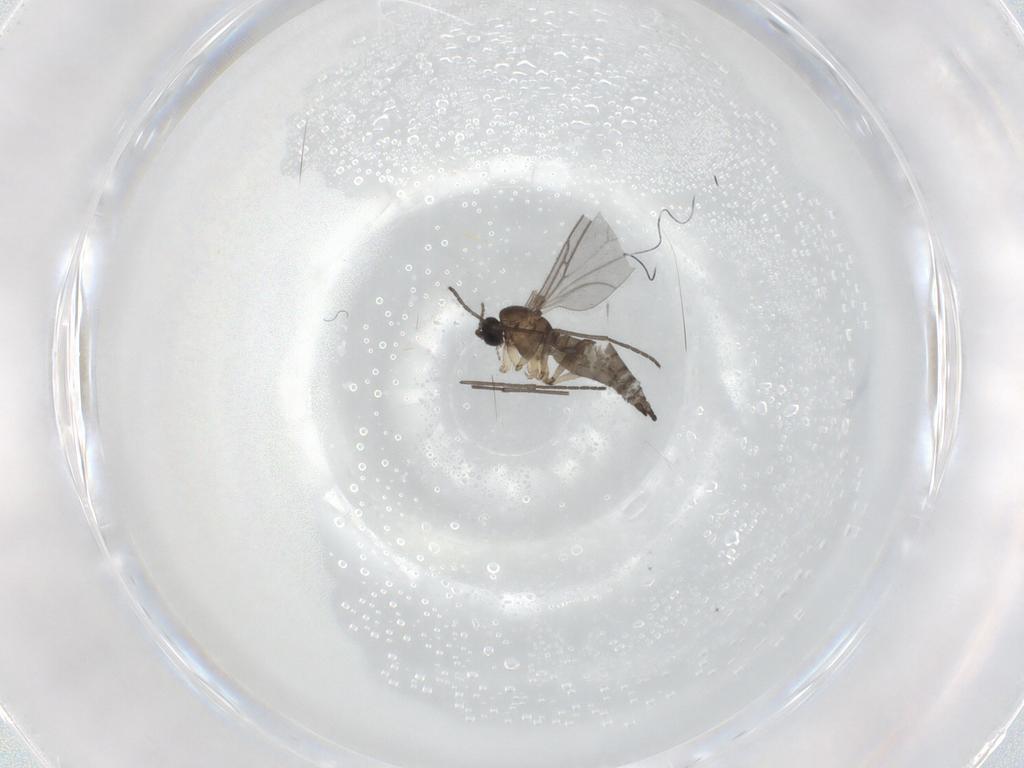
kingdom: Animalia
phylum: Arthropoda
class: Insecta
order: Diptera
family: Sciaridae
